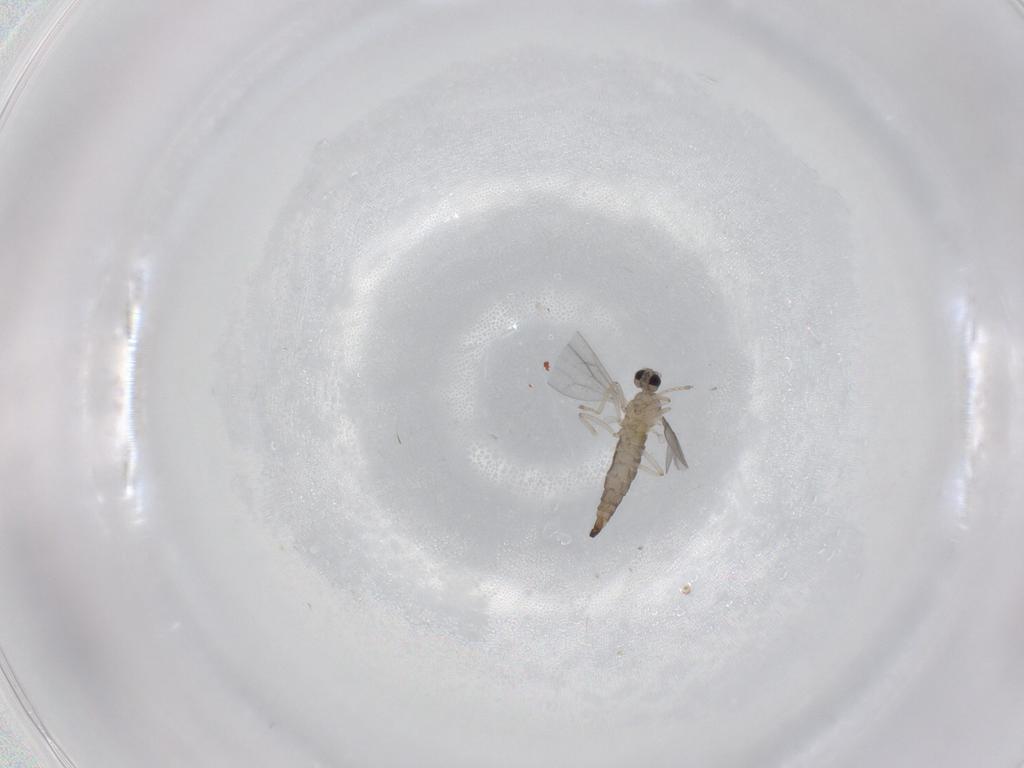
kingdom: Animalia
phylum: Arthropoda
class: Insecta
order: Diptera
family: Cecidomyiidae
